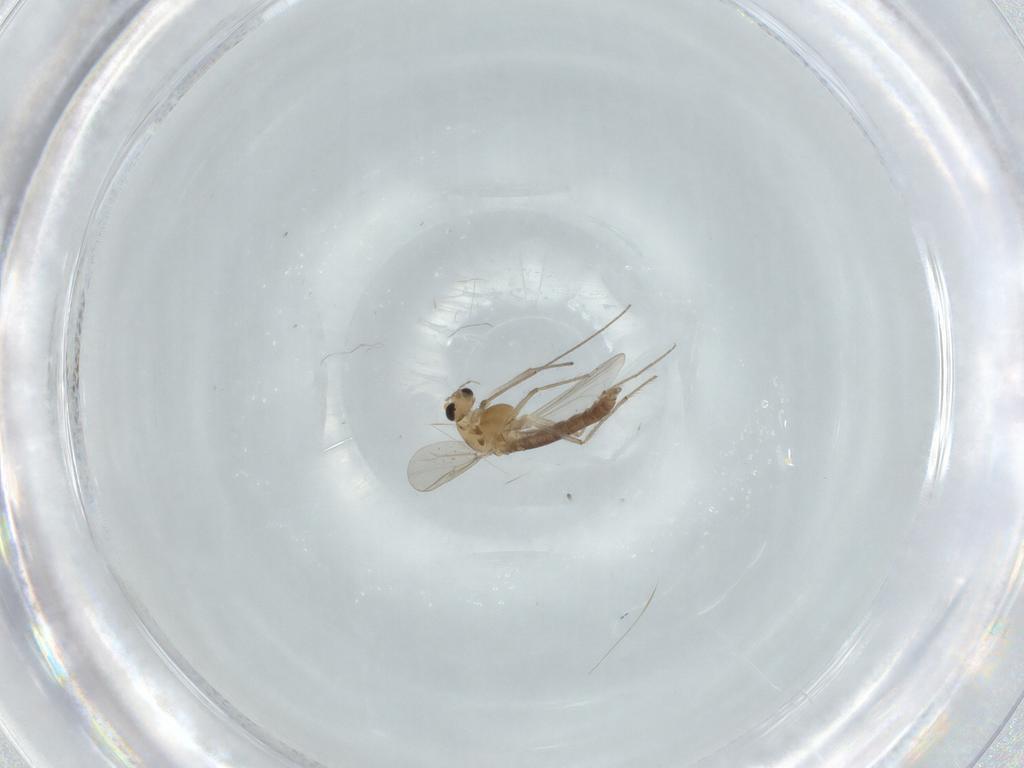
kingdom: Animalia
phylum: Arthropoda
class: Insecta
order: Diptera
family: Chironomidae
